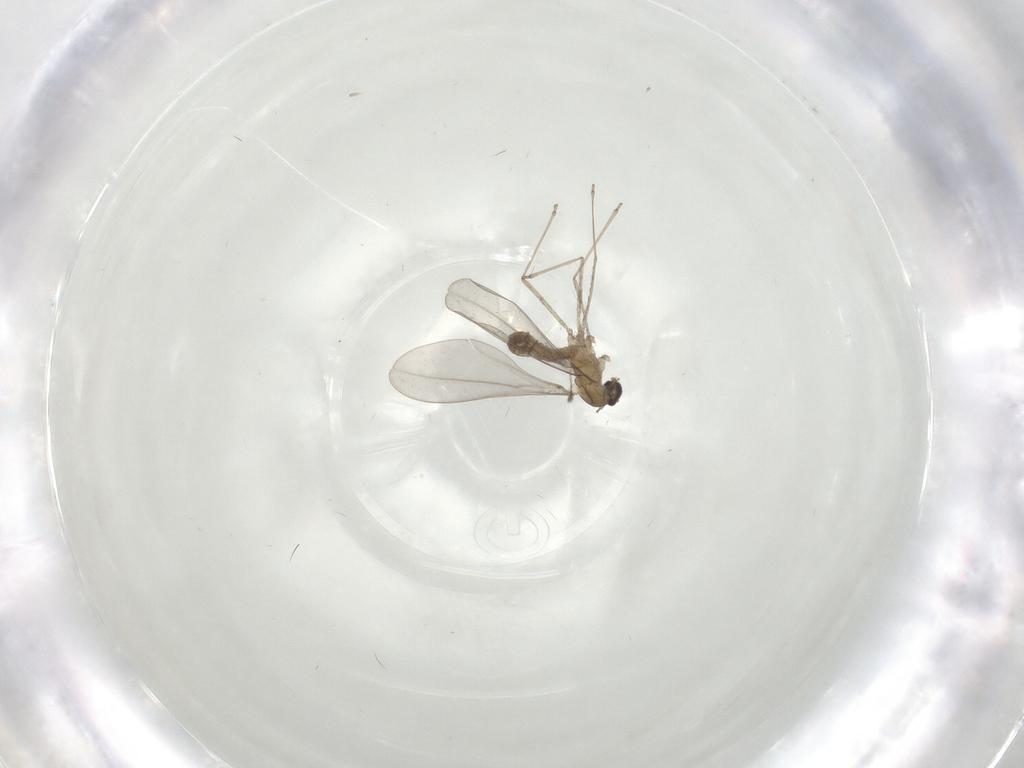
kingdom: Animalia
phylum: Arthropoda
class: Insecta
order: Diptera
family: Cecidomyiidae
